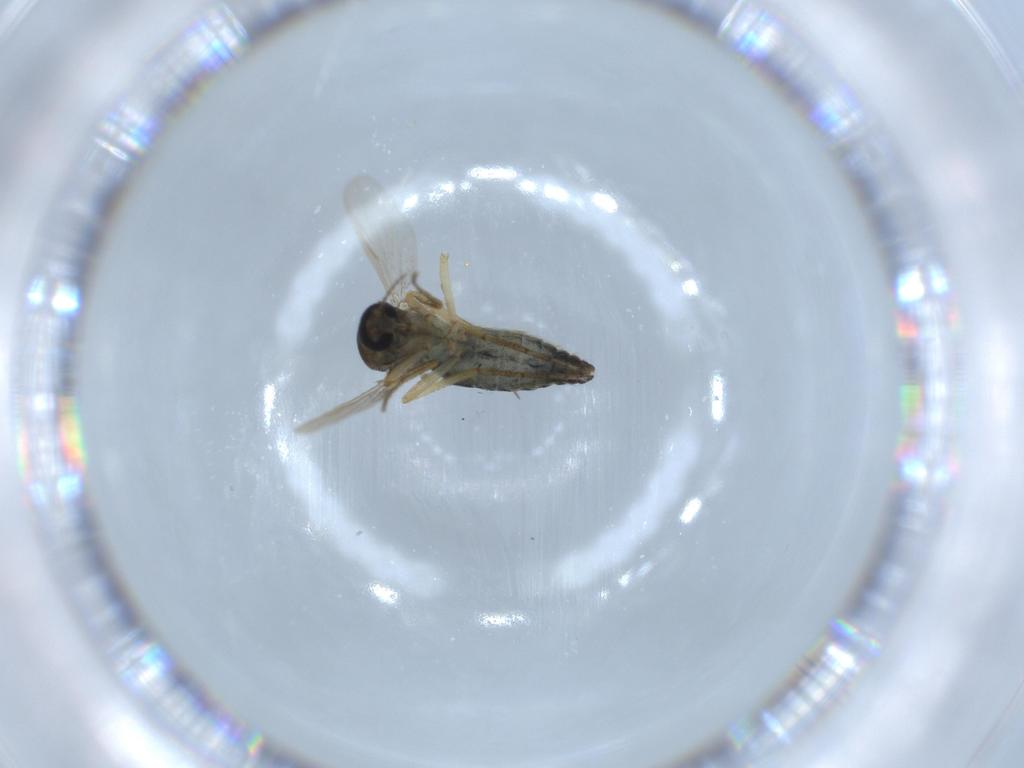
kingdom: Animalia
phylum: Arthropoda
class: Insecta
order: Diptera
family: Ceratopogonidae
